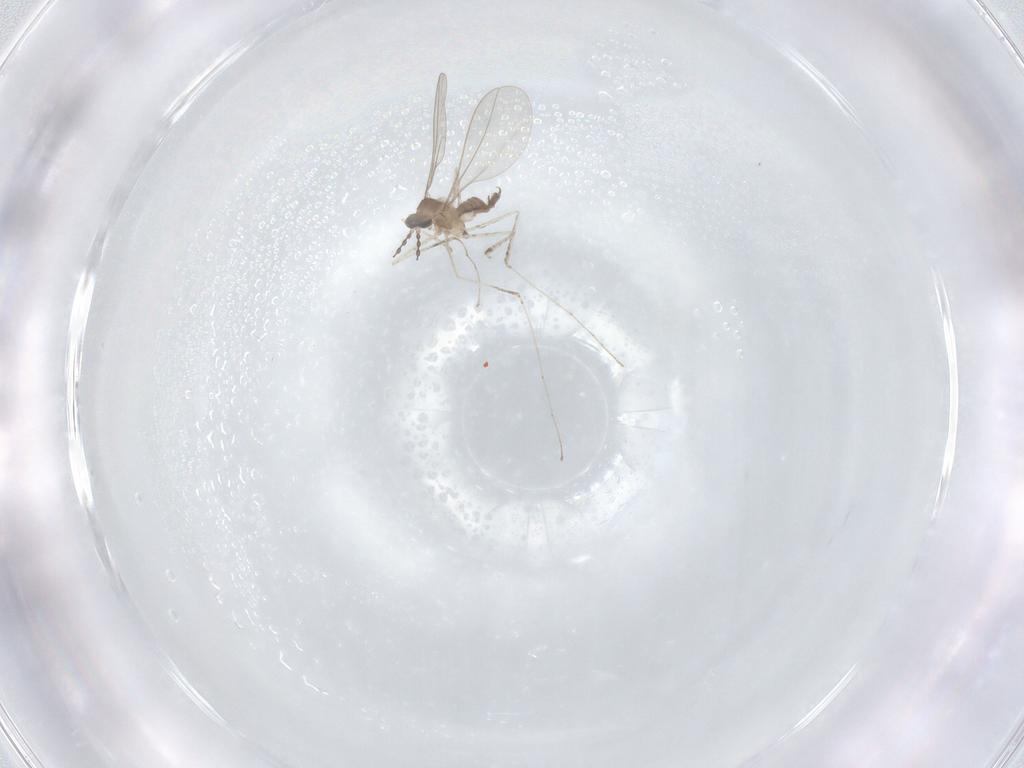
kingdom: Animalia
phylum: Arthropoda
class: Insecta
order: Diptera
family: Cecidomyiidae
